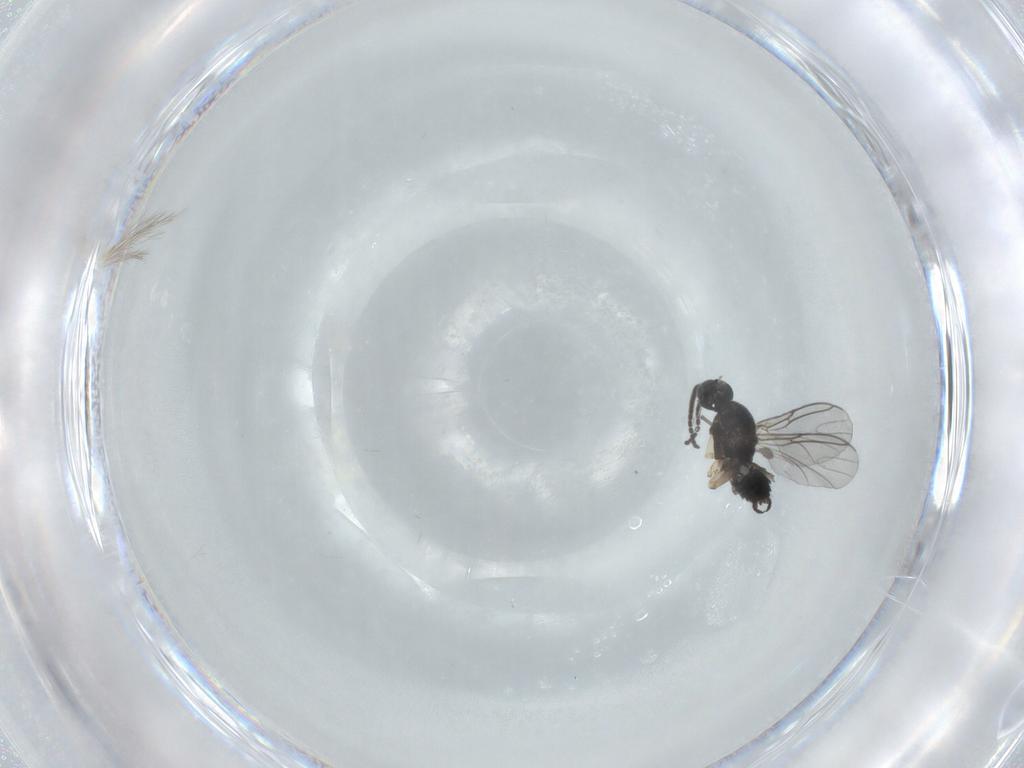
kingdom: Animalia
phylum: Arthropoda
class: Insecta
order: Diptera
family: Sciaridae
